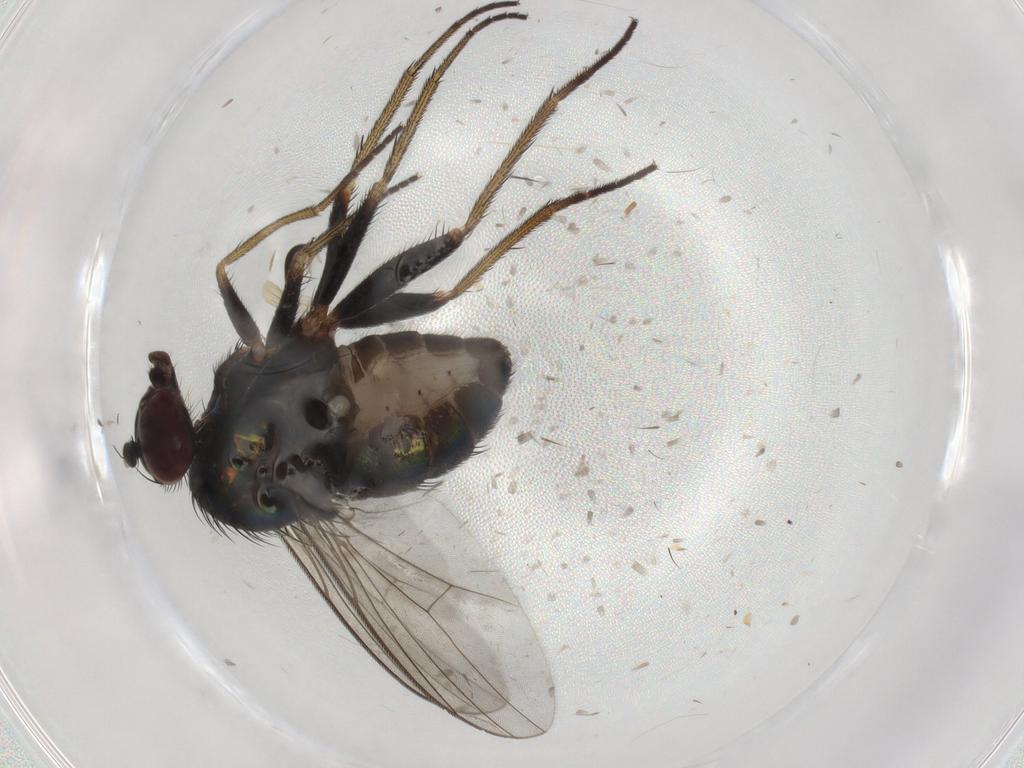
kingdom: Animalia
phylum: Arthropoda
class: Insecta
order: Diptera
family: Dolichopodidae
